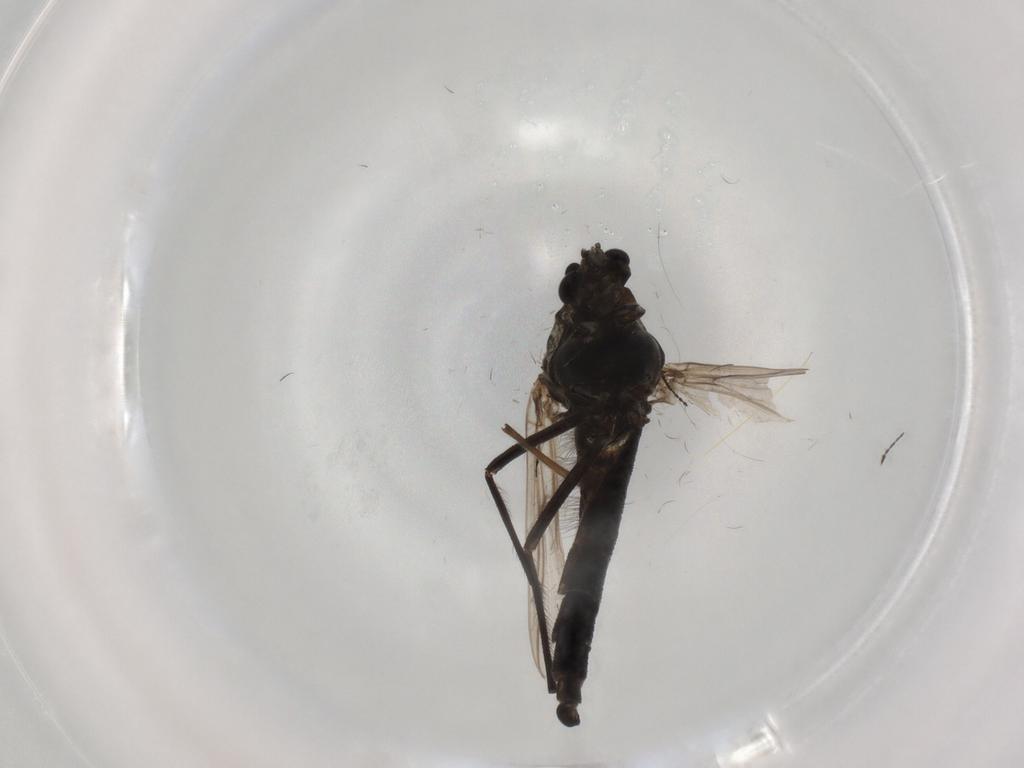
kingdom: Animalia
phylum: Arthropoda
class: Insecta
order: Diptera
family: Chironomidae
